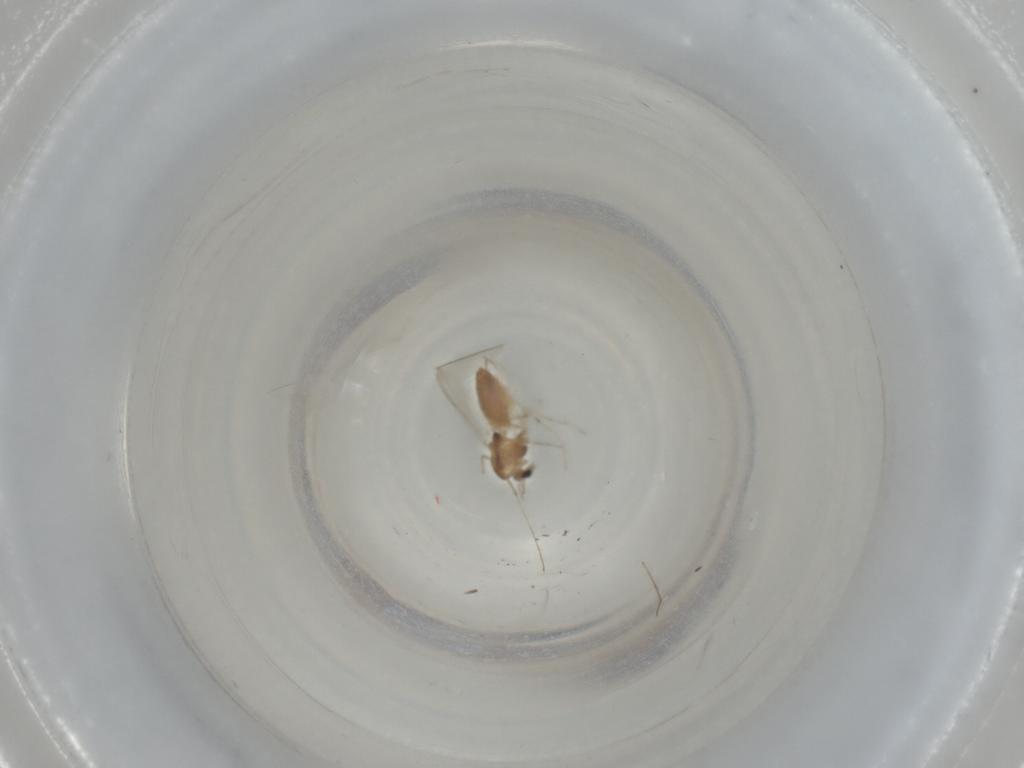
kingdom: Animalia
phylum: Arthropoda
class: Insecta
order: Diptera
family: Chironomidae
